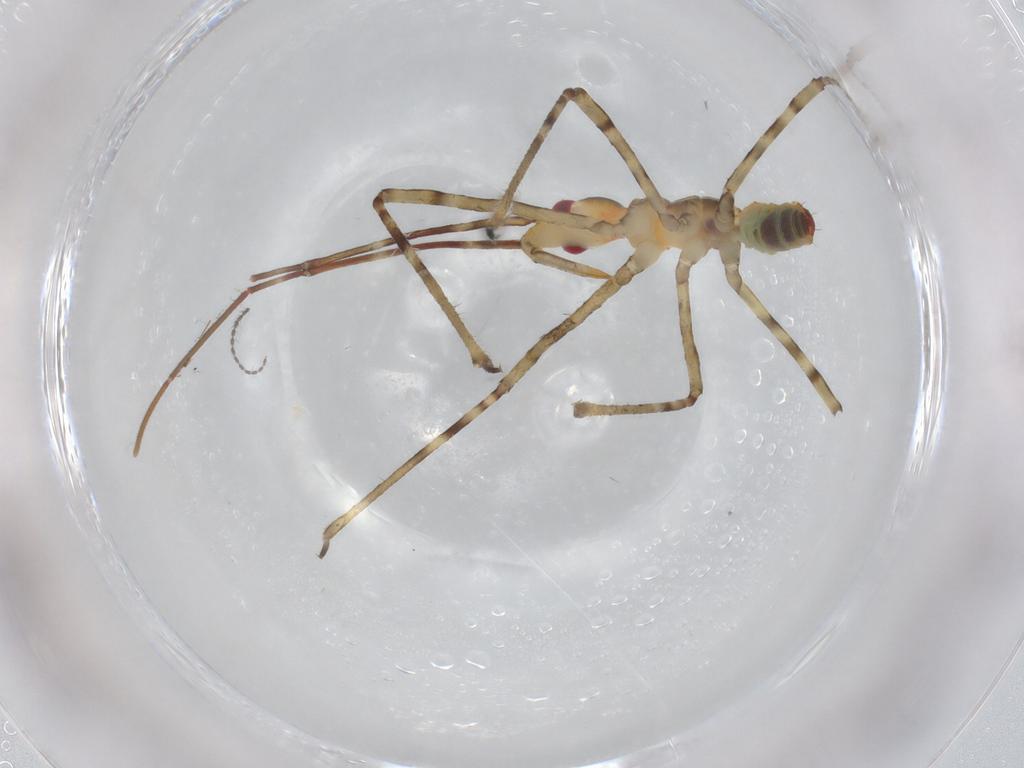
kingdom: Animalia
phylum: Arthropoda
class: Insecta
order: Hemiptera
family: Reduviidae
